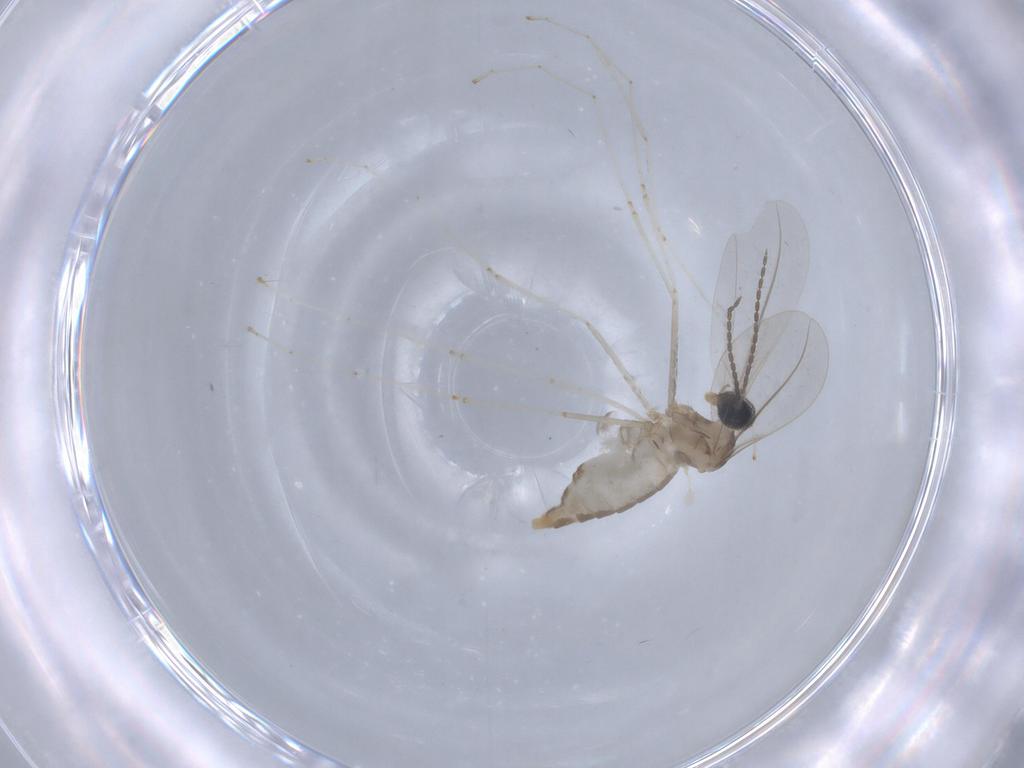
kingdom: Animalia
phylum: Arthropoda
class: Insecta
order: Diptera
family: Cecidomyiidae
